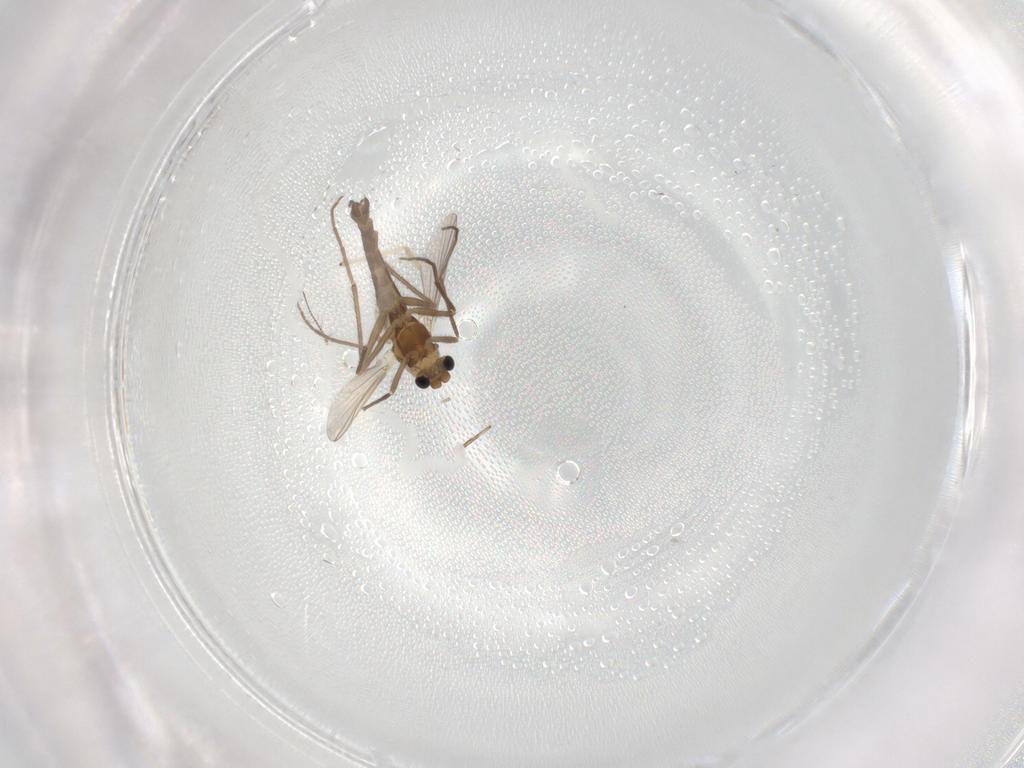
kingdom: Animalia
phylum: Arthropoda
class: Insecta
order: Diptera
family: Chironomidae
